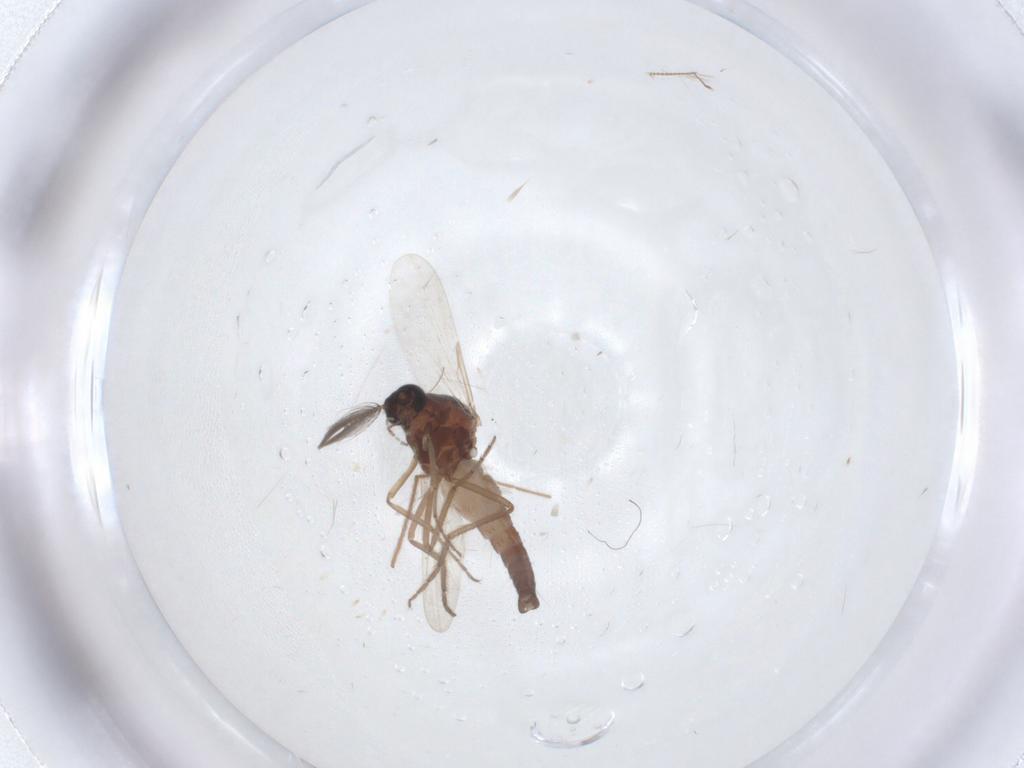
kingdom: Animalia
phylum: Arthropoda
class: Insecta
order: Diptera
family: Ceratopogonidae
